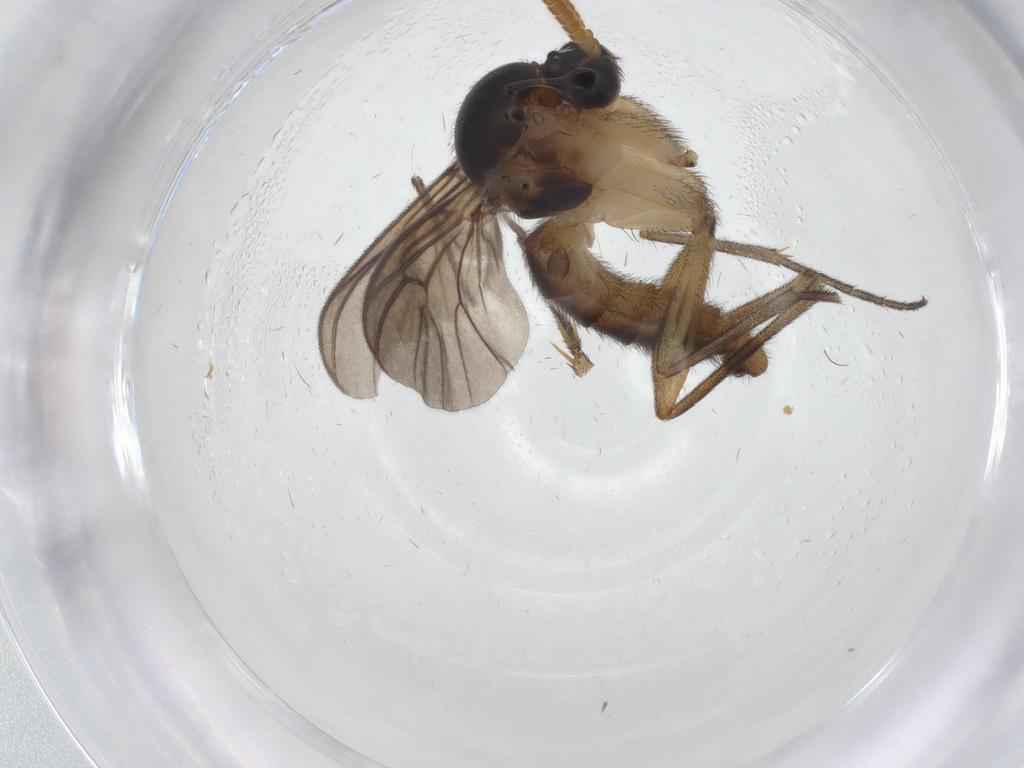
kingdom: Animalia
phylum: Arthropoda
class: Insecta
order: Diptera
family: Mycetophilidae
